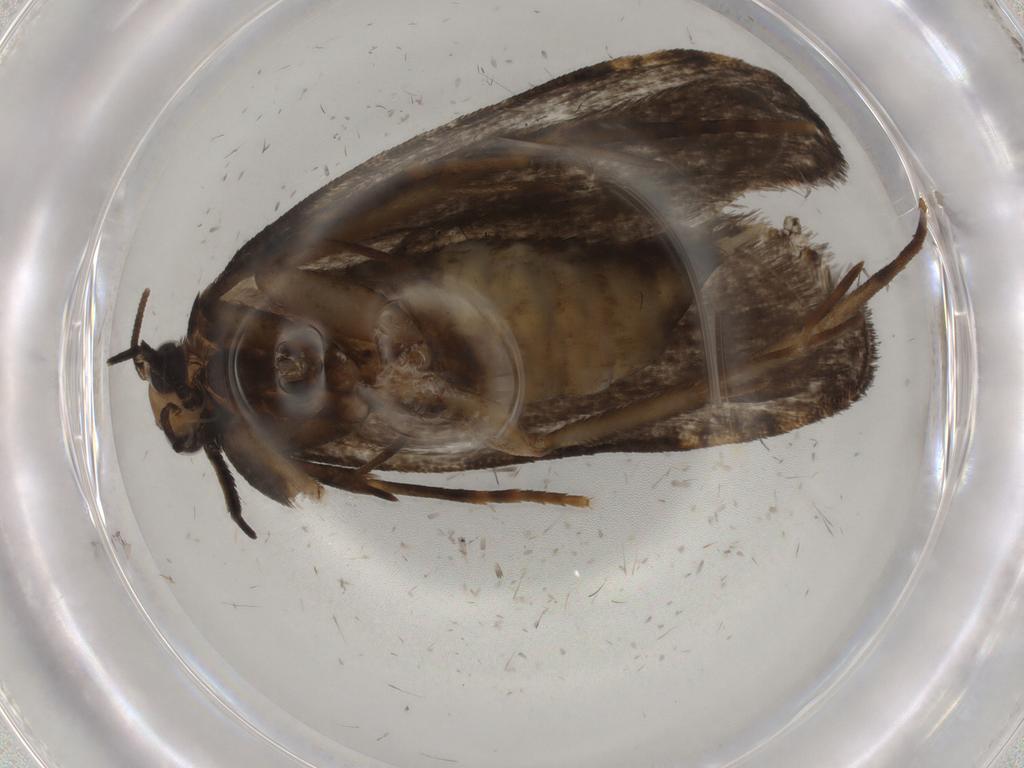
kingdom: Animalia
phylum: Arthropoda
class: Insecta
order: Lepidoptera
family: Tineidae
